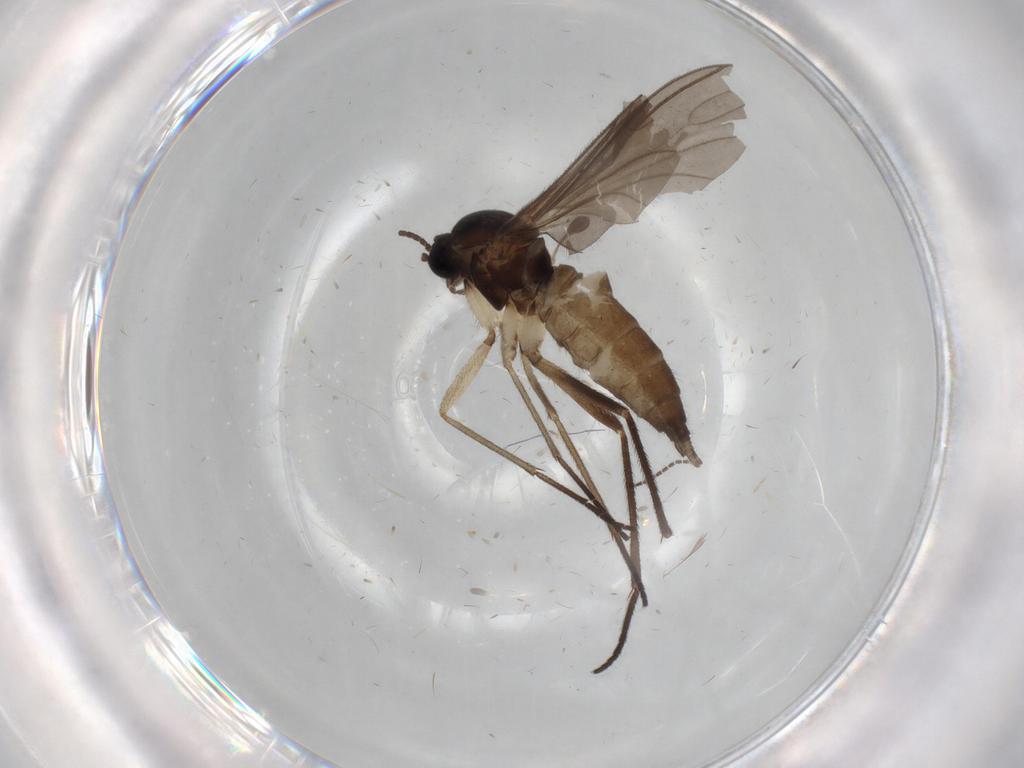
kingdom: Animalia
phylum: Arthropoda
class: Insecta
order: Diptera
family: Sciaridae
